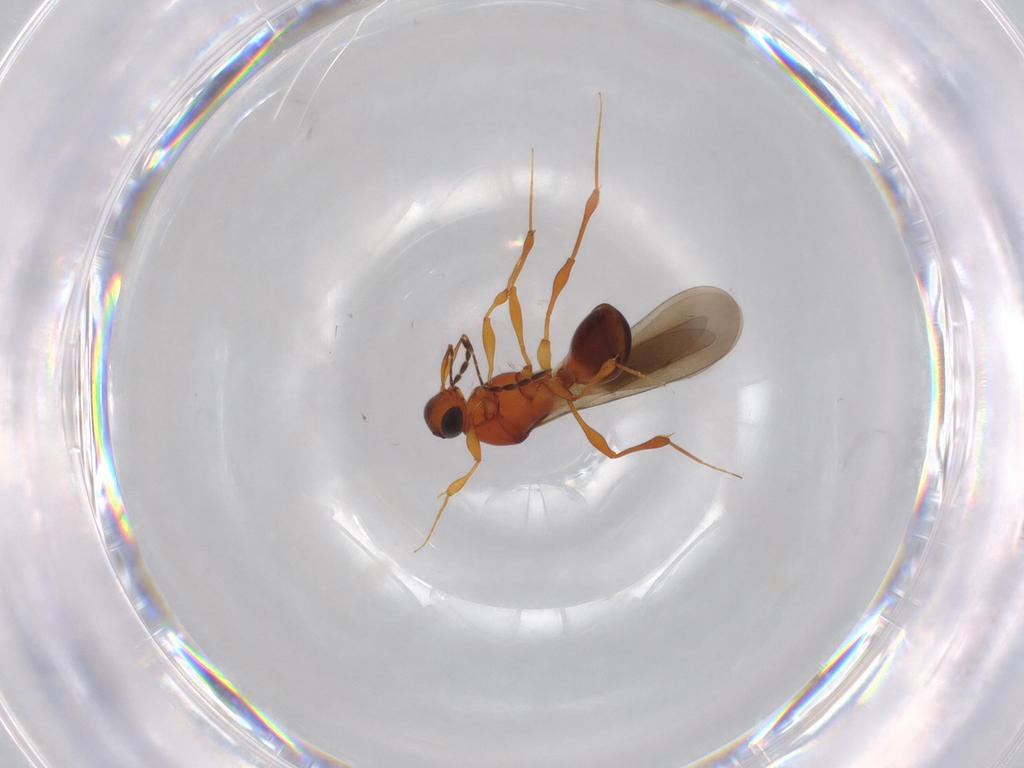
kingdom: Animalia
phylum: Arthropoda
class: Insecta
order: Hymenoptera
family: Platygastridae
